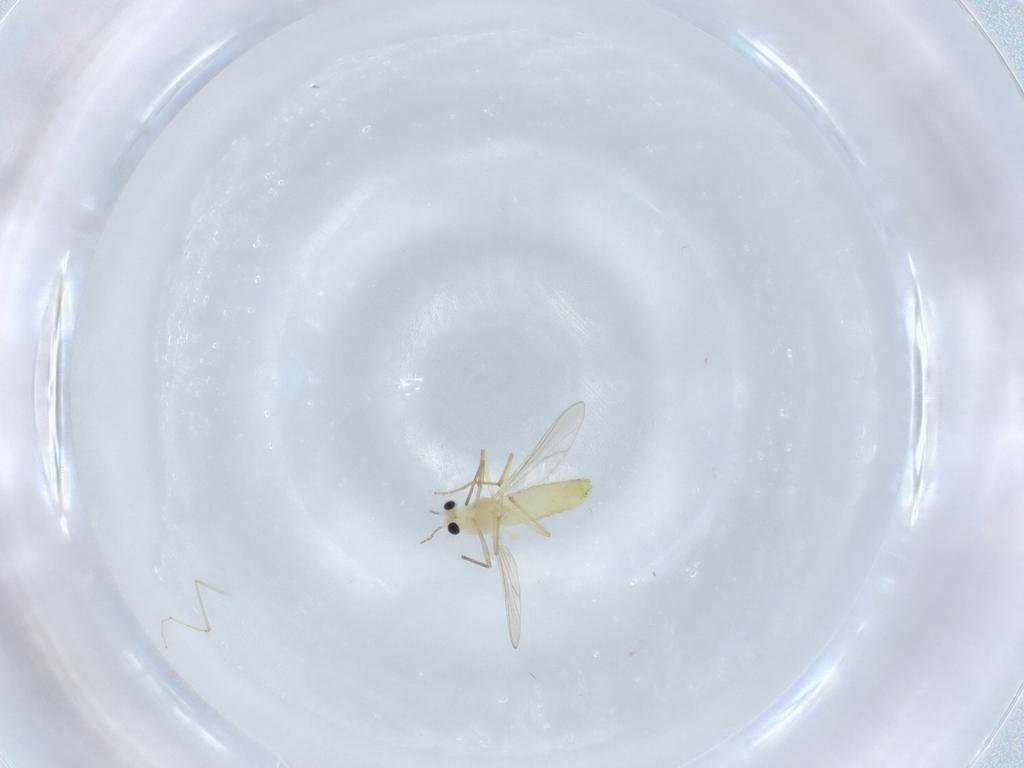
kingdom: Animalia
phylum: Arthropoda
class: Insecta
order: Diptera
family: Chironomidae
